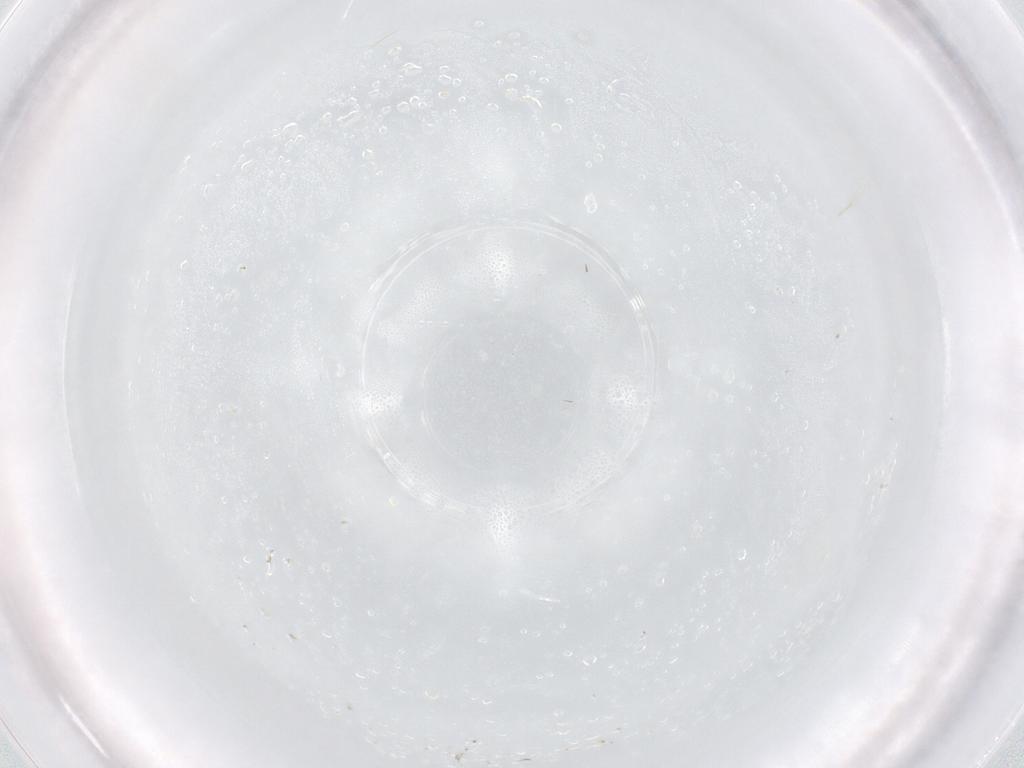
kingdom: Animalia
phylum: Arthropoda
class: Insecta
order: Diptera
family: Dolichopodidae
